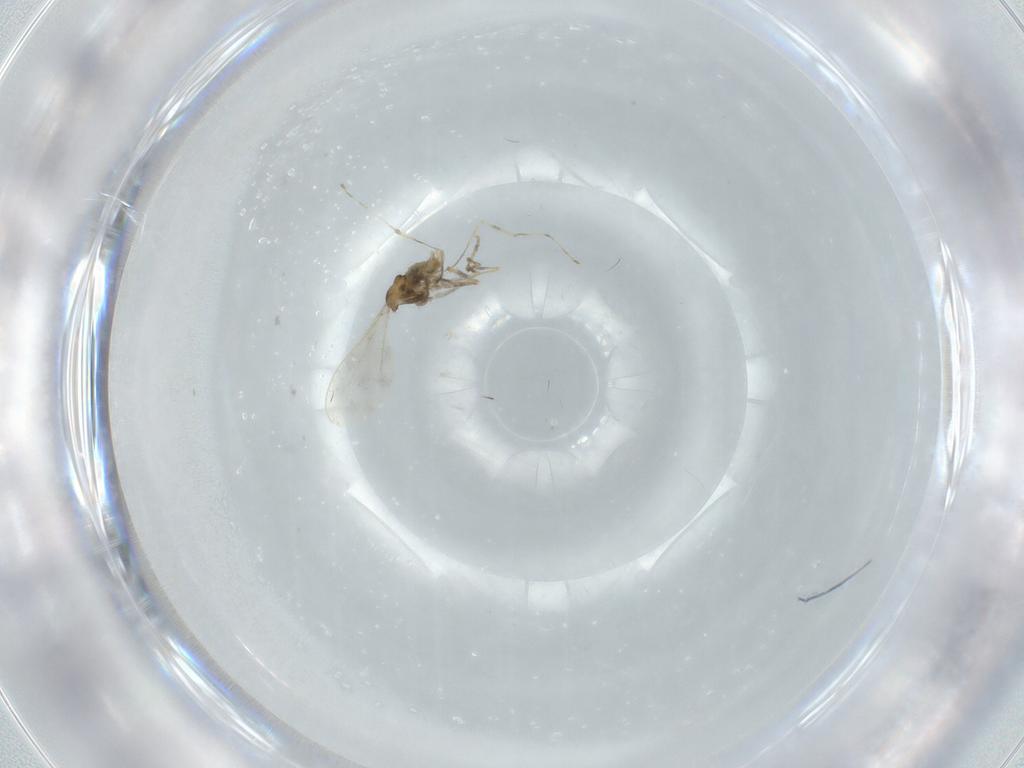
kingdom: Animalia
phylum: Arthropoda
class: Insecta
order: Diptera
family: Cecidomyiidae
